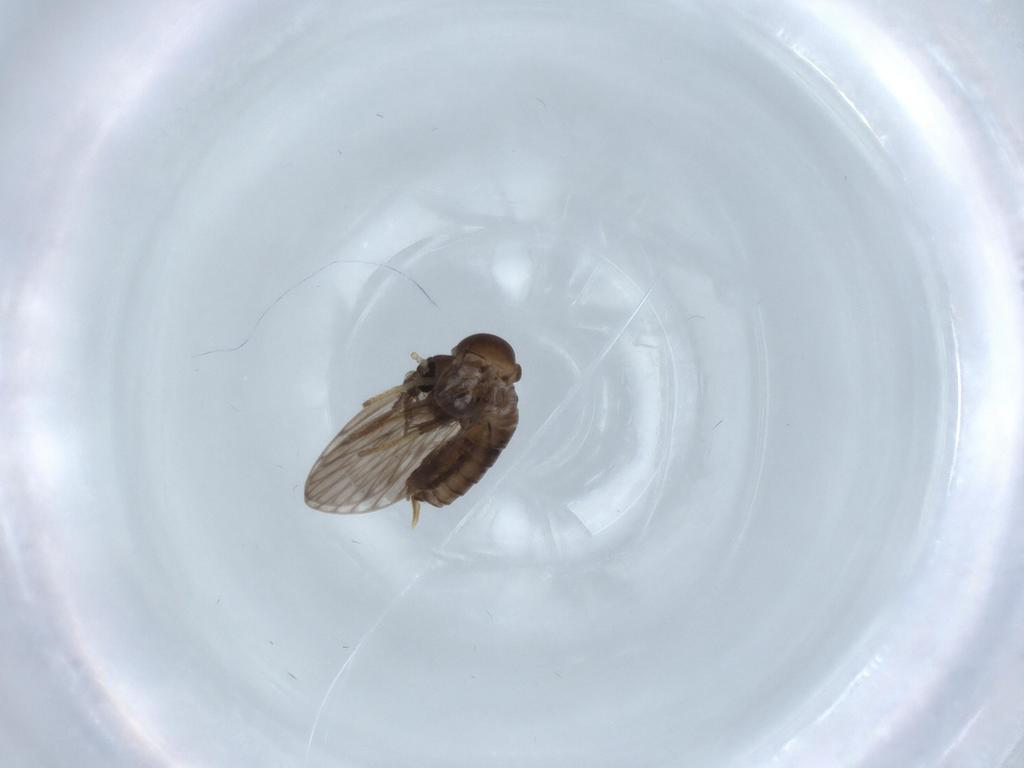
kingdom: Animalia
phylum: Arthropoda
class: Insecta
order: Diptera
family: Psychodidae
